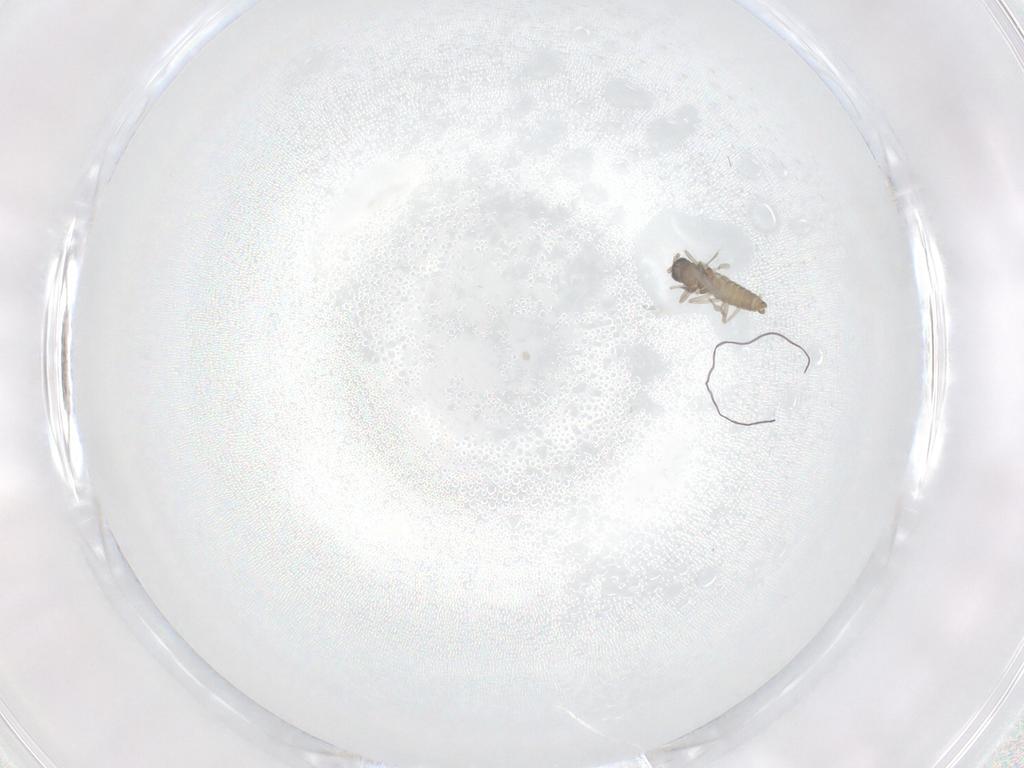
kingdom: Animalia
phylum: Arthropoda
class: Insecta
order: Diptera
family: Cecidomyiidae
